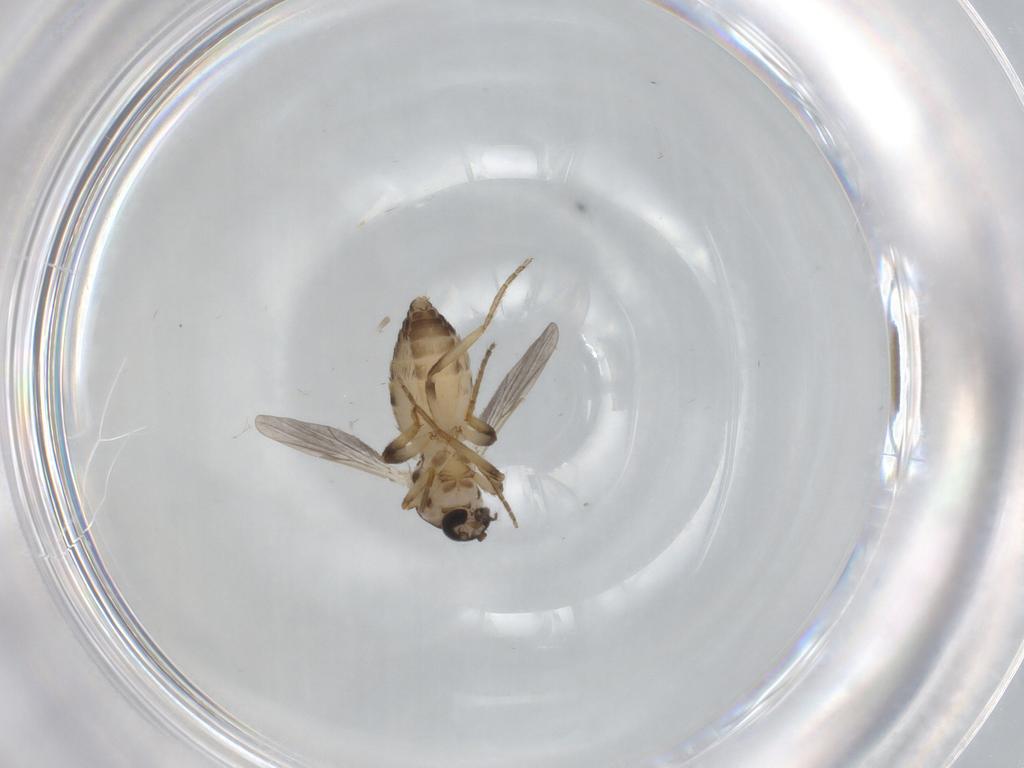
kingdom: Animalia
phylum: Arthropoda
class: Insecta
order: Diptera
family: Ceratopogonidae
